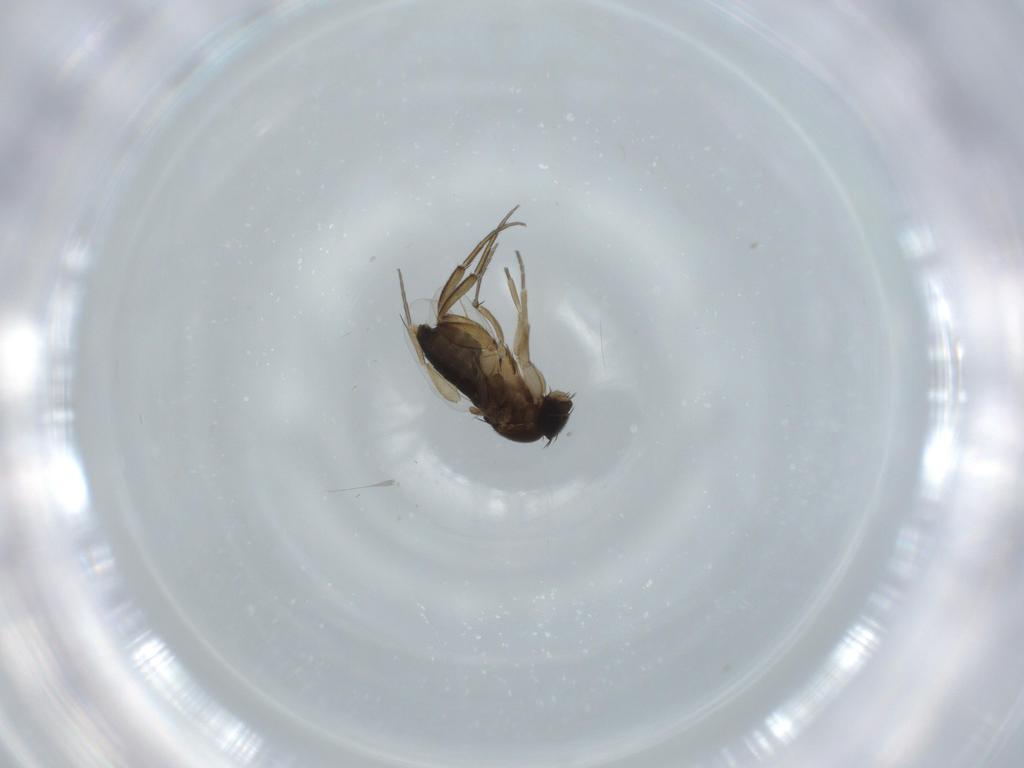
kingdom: Animalia
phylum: Arthropoda
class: Insecta
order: Diptera
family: Phoridae
